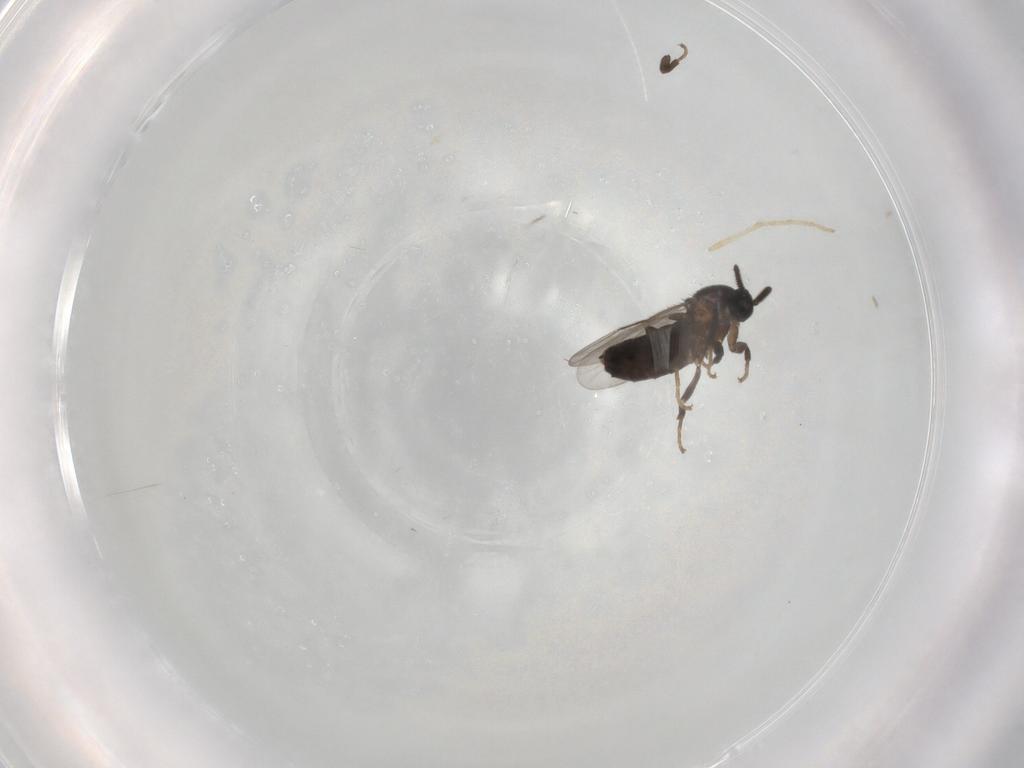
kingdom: Animalia
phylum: Arthropoda
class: Insecta
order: Diptera
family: Scatopsidae
